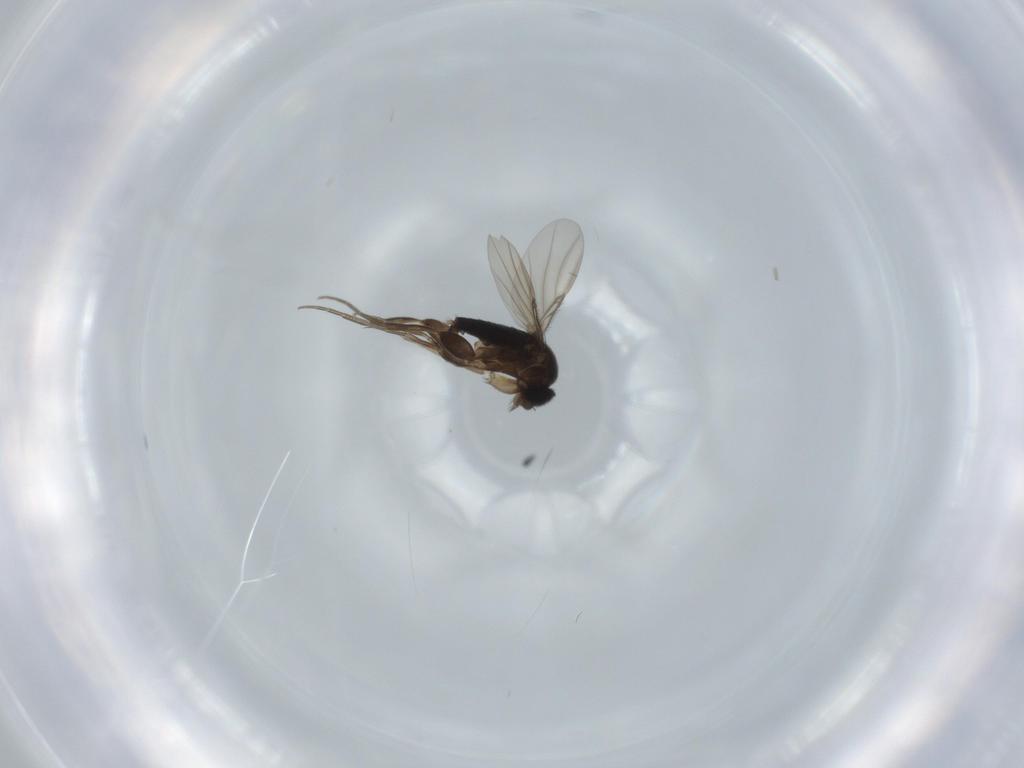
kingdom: Animalia
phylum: Arthropoda
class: Insecta
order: Diptera
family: Phoridae
